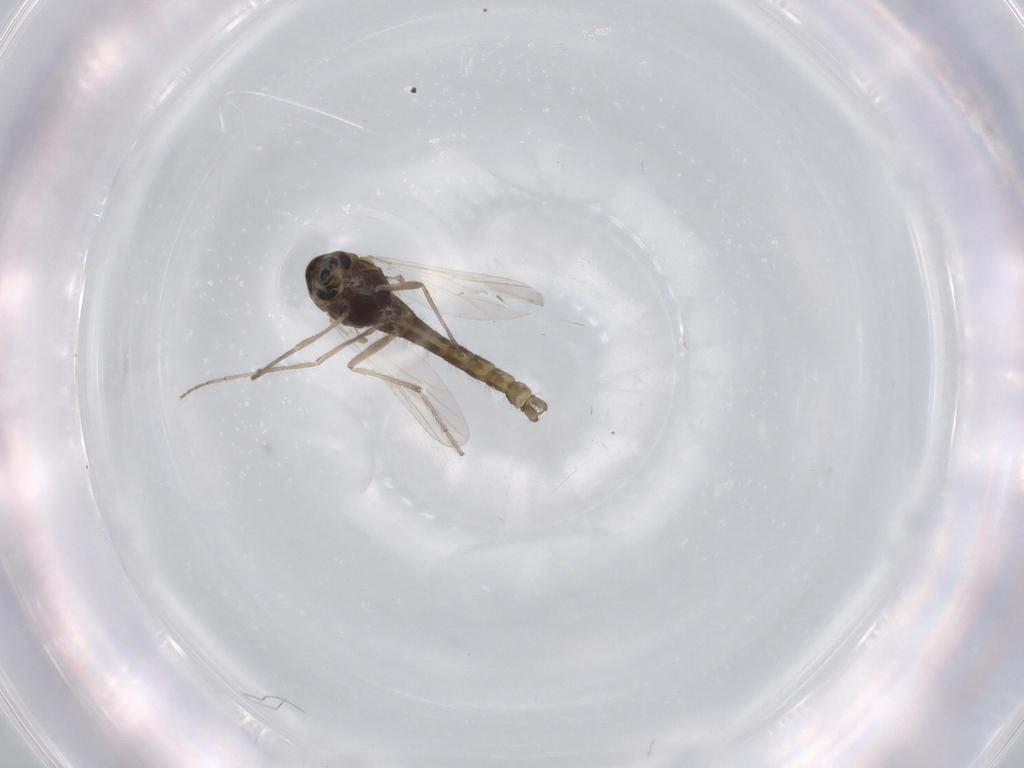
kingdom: Animalia
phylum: Arthropoda
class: Insecta
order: Diptera
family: Chironomidae
